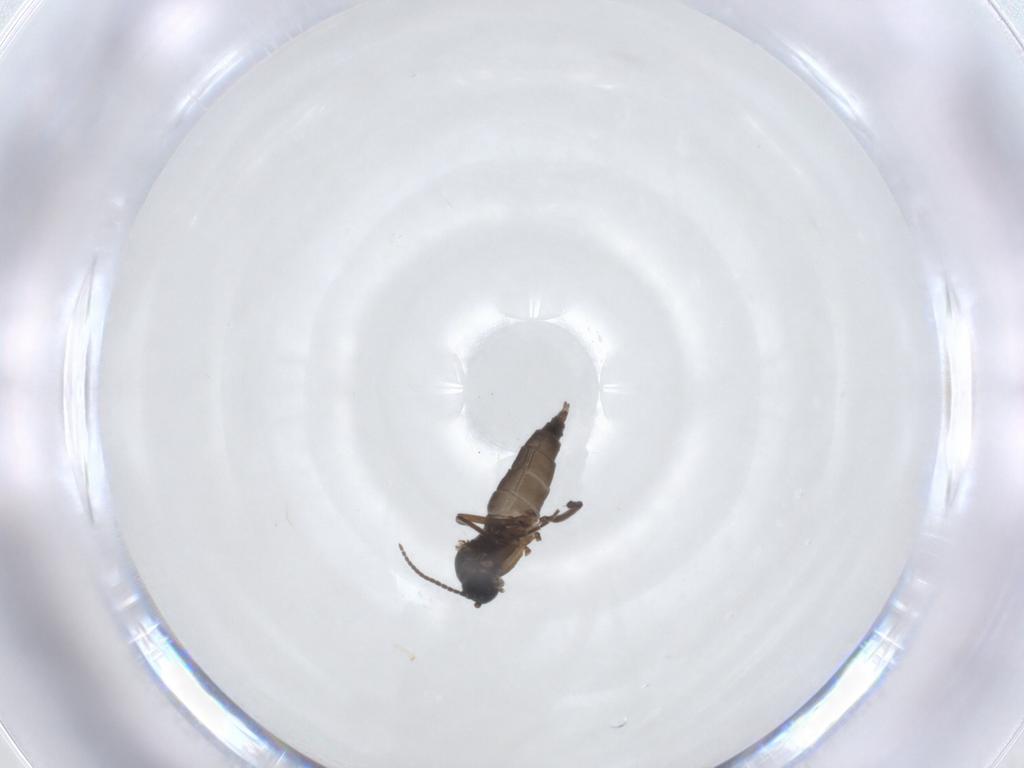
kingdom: Animalia
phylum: Arthropoda
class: Insecta
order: Diptera
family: Sciaridae
